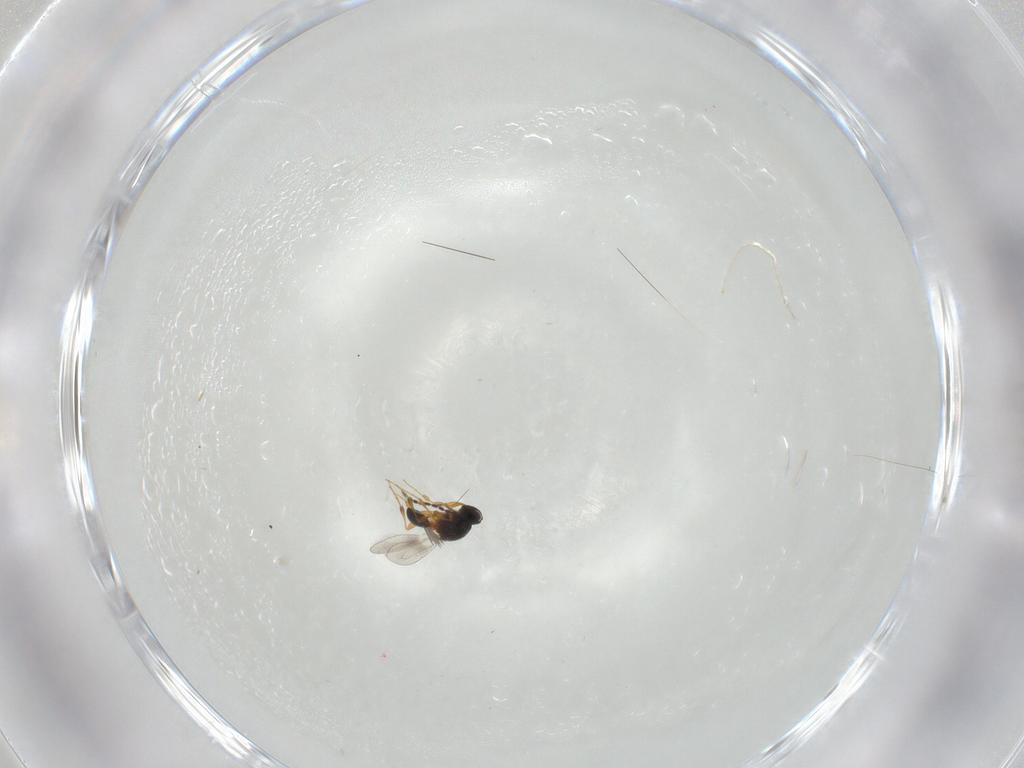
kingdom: Animalia
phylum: Arthropoda
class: Insecta
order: Hymenoptera
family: Platygastridae
